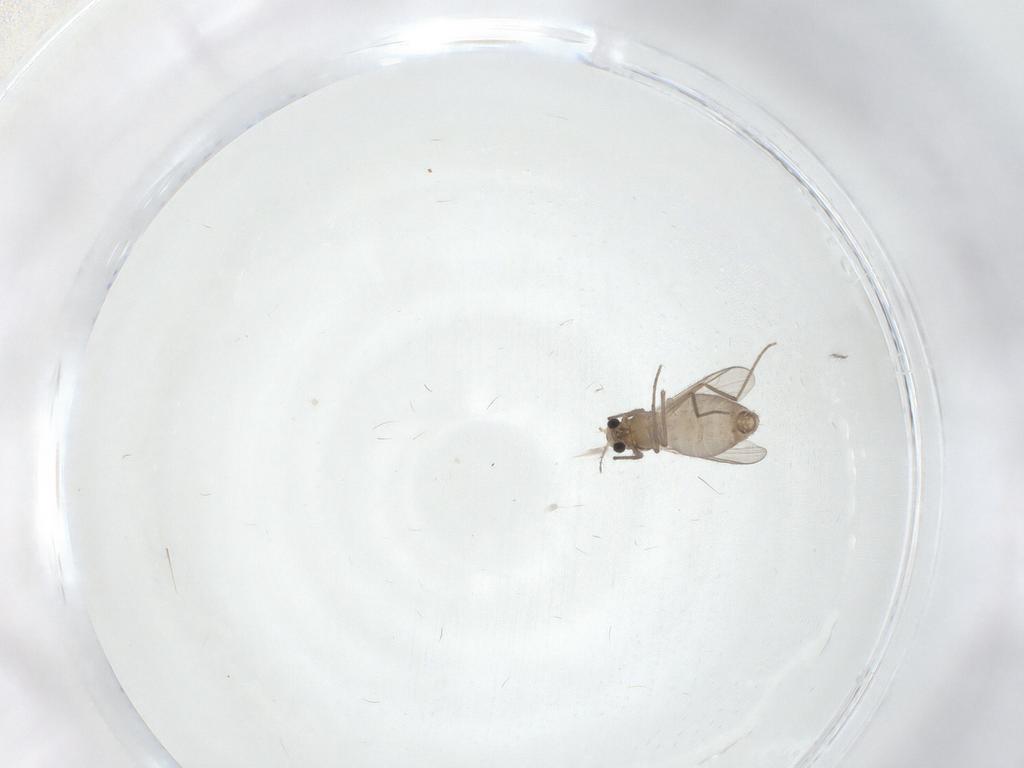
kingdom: Animalia
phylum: Arthropoda
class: Insecta
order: Diptera
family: Chironomidae
